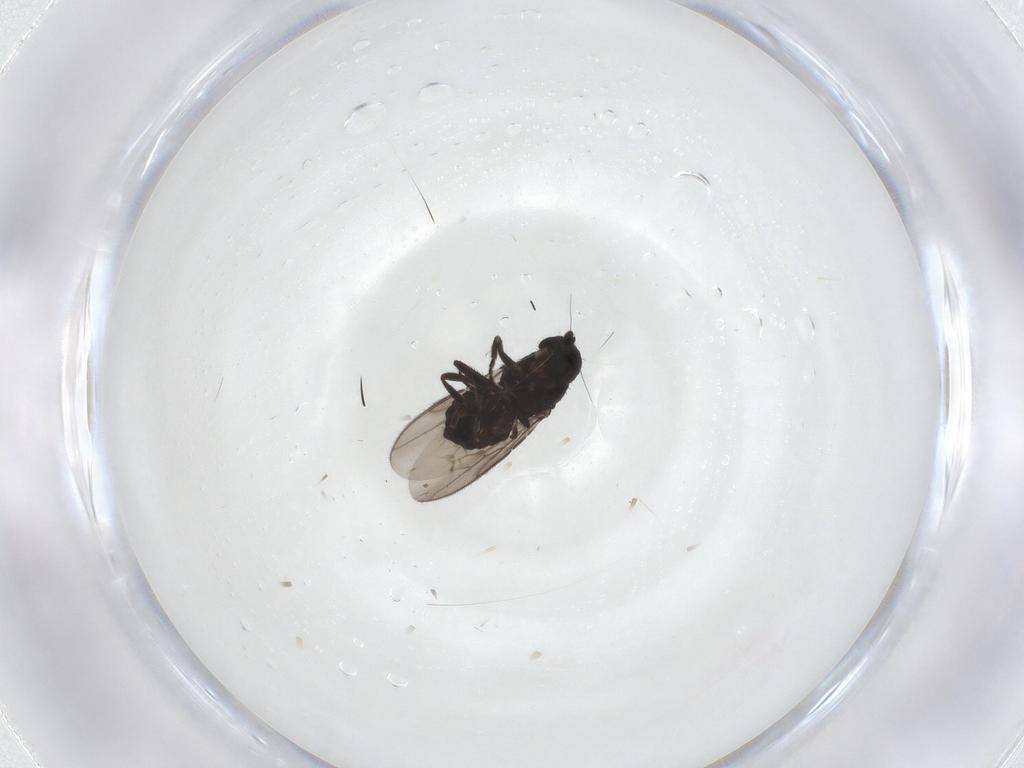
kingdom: Animalia
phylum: Arthropoda
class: Insecta
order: Diptera
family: Sphaeroceridae
